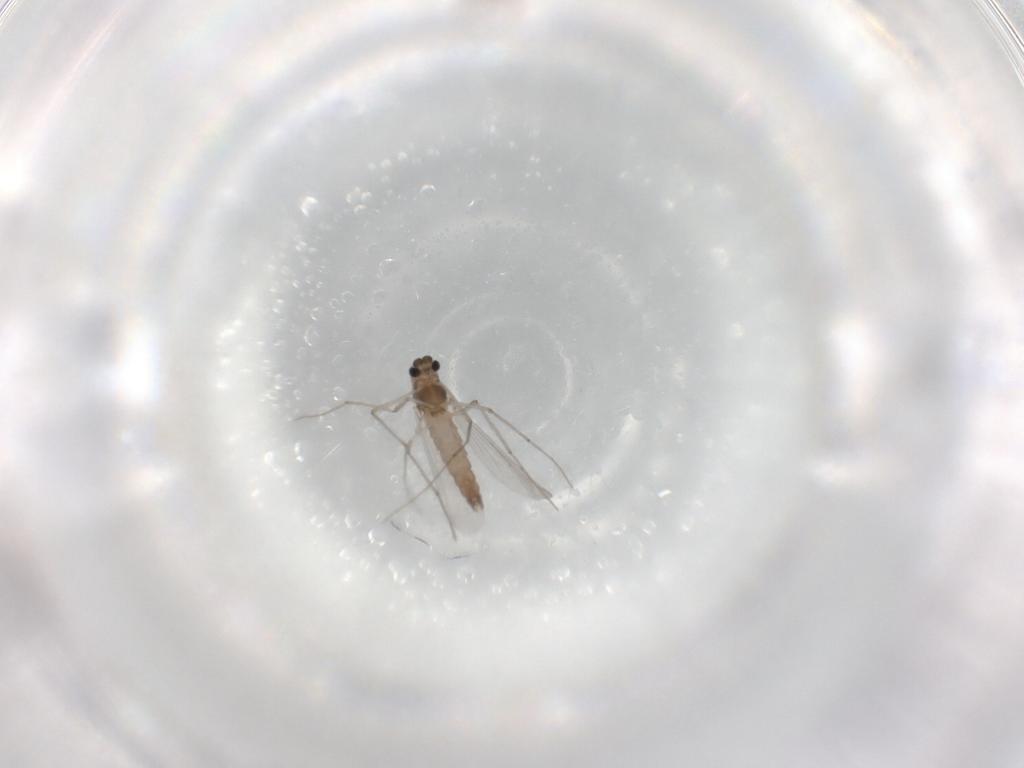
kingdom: Animalia
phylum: Arthropoda
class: Insecta
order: Diptera
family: Chironomidae
